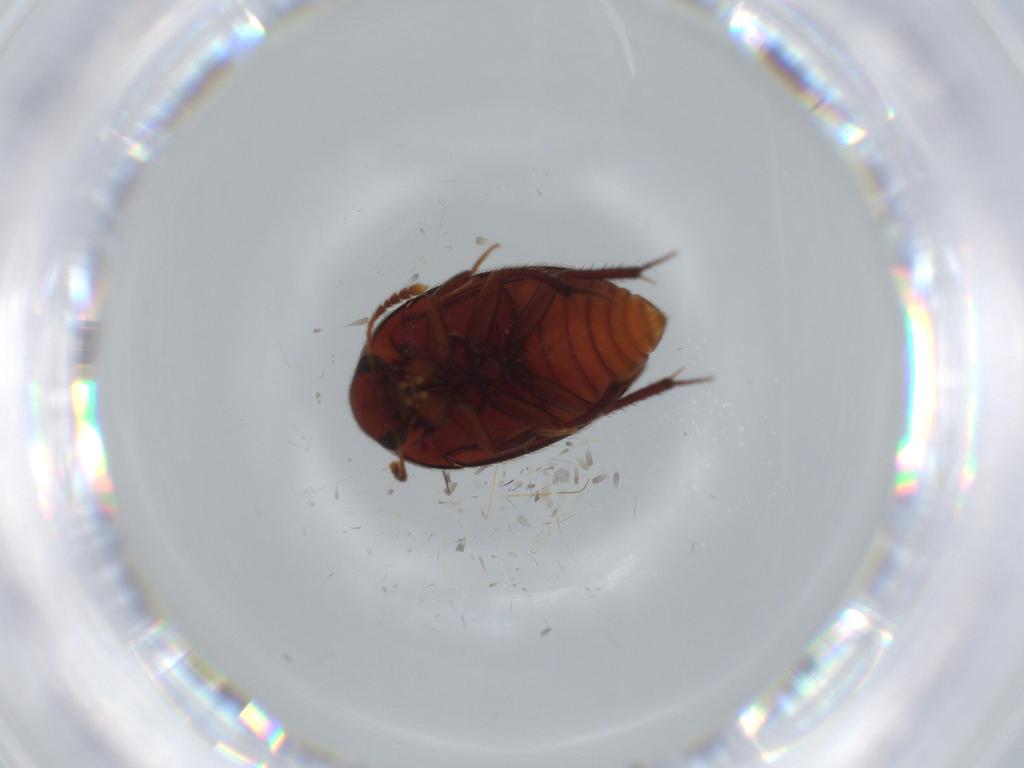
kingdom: Animalia
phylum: Arthropoda
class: Insecta
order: Coleoptera
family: Leiodidae
